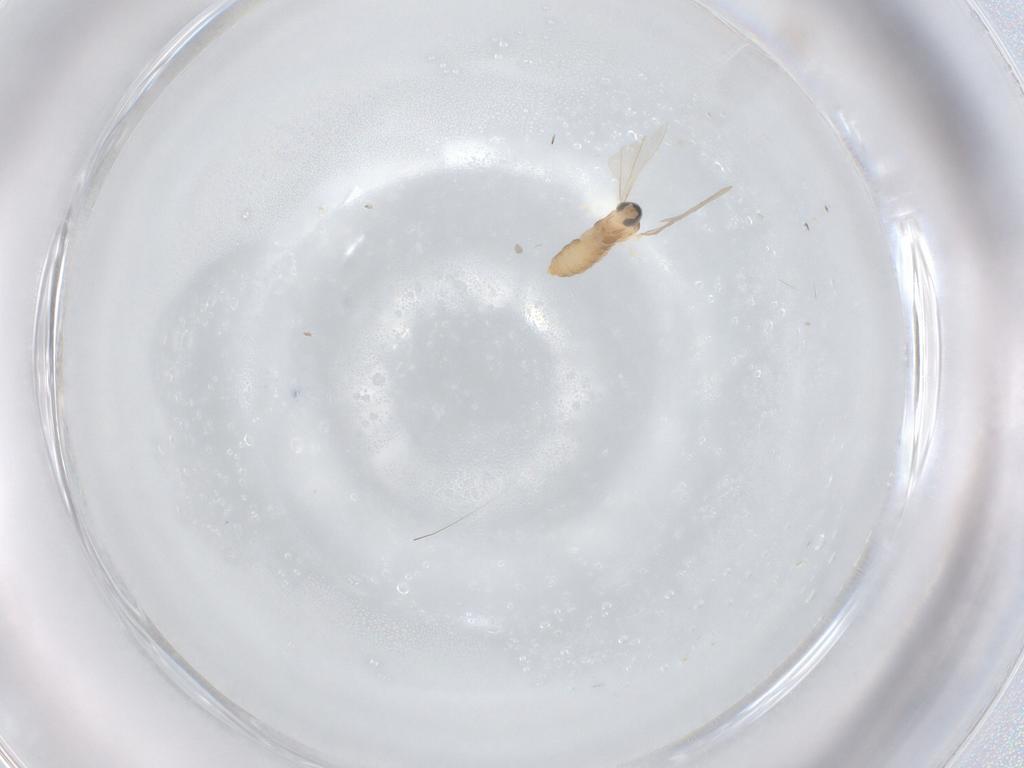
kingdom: Animalia
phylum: Arthropoda
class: Insecta
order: Diptera
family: Cecidomyiidae
